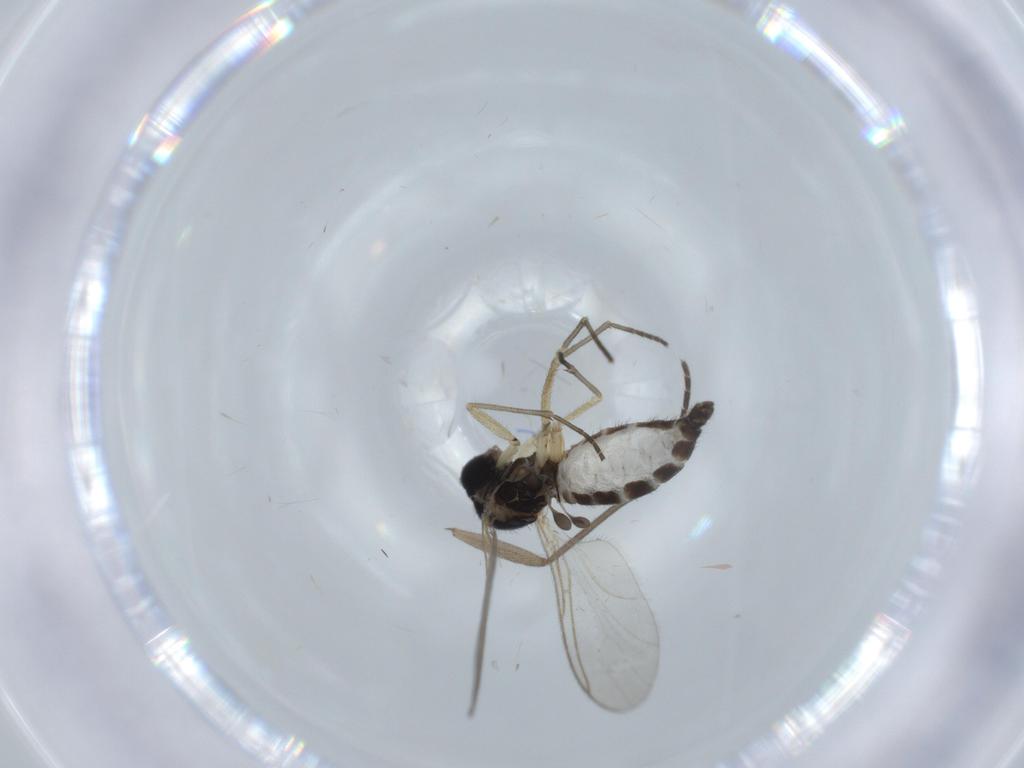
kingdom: Animalia
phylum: Arthropoda
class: Insecta
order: Diptera
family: Sciaridae
